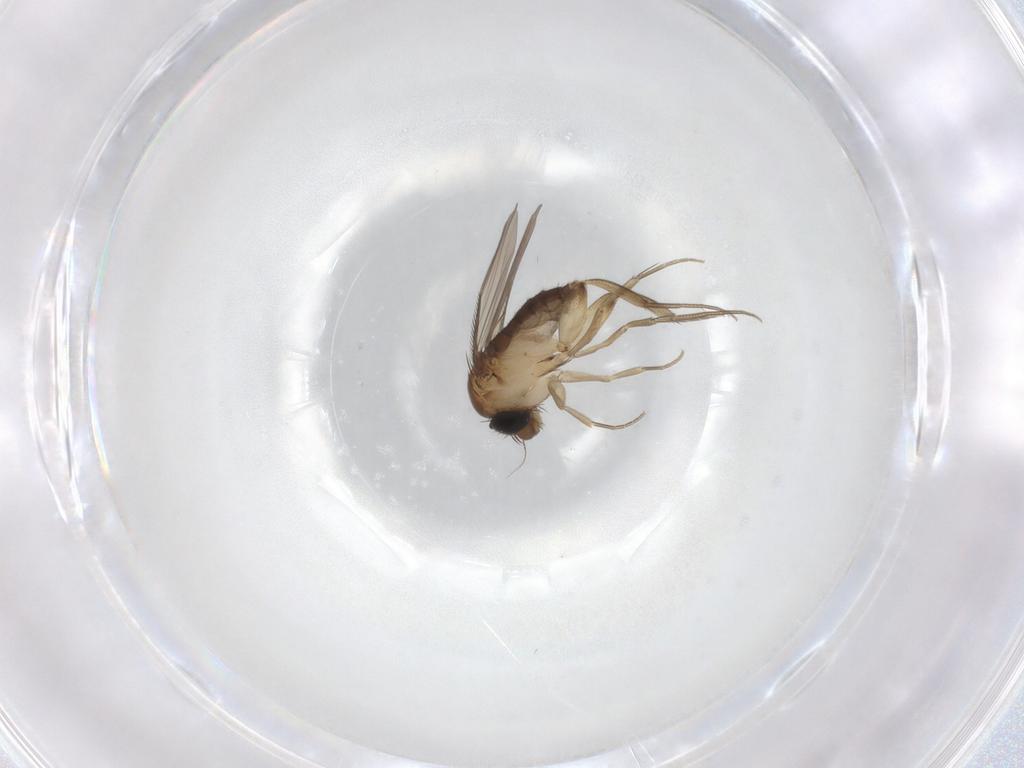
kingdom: Animalia
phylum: Arthropoda
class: Insecta
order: Diptera
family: Phoridae
